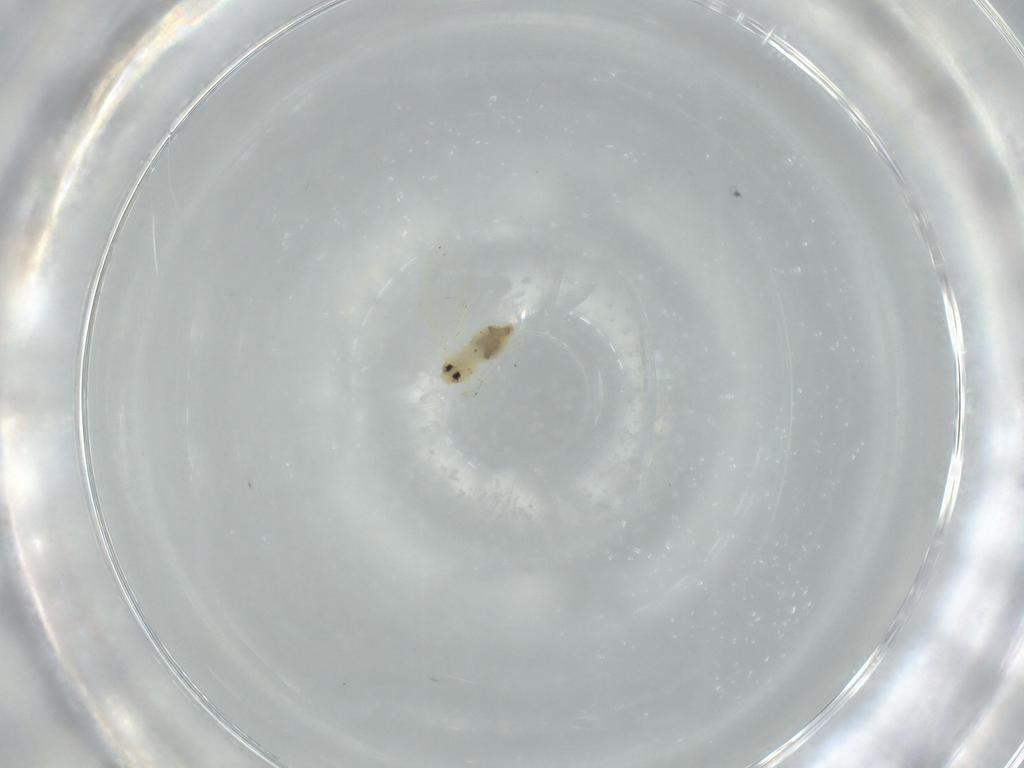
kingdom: Animalia
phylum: Arthropoda
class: Insecta
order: Hemiptera
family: Aleyrodidae
